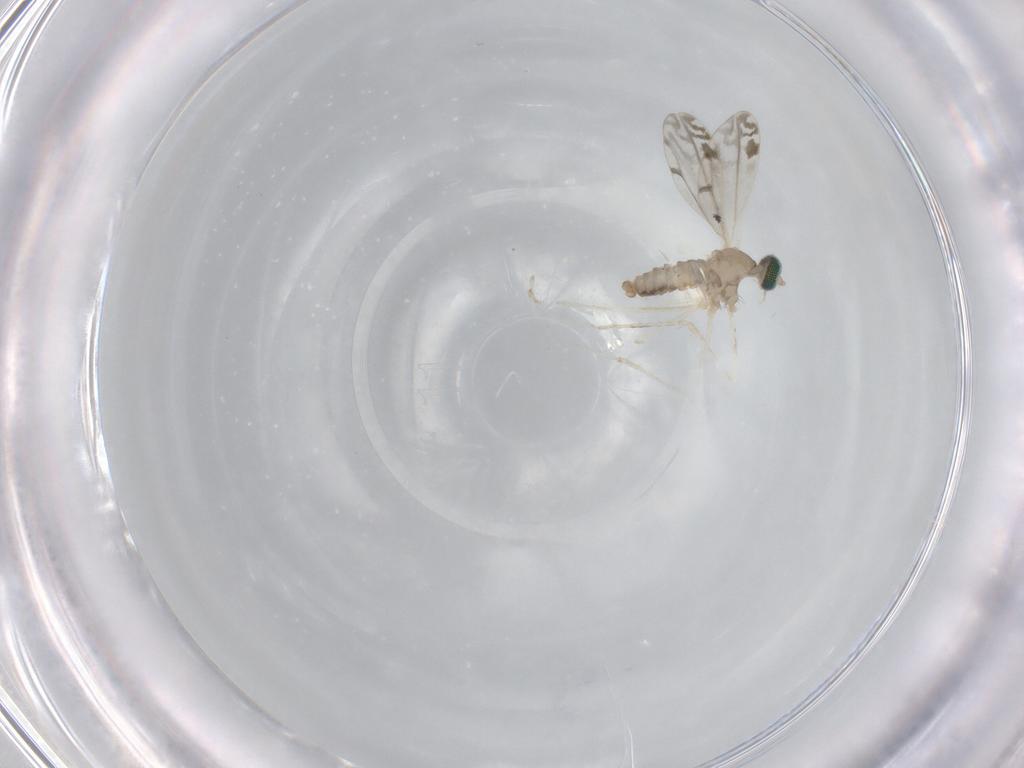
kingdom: Animalia
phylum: Arthropoda
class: Insecta
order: Diptera
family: Cecidomyiidae
